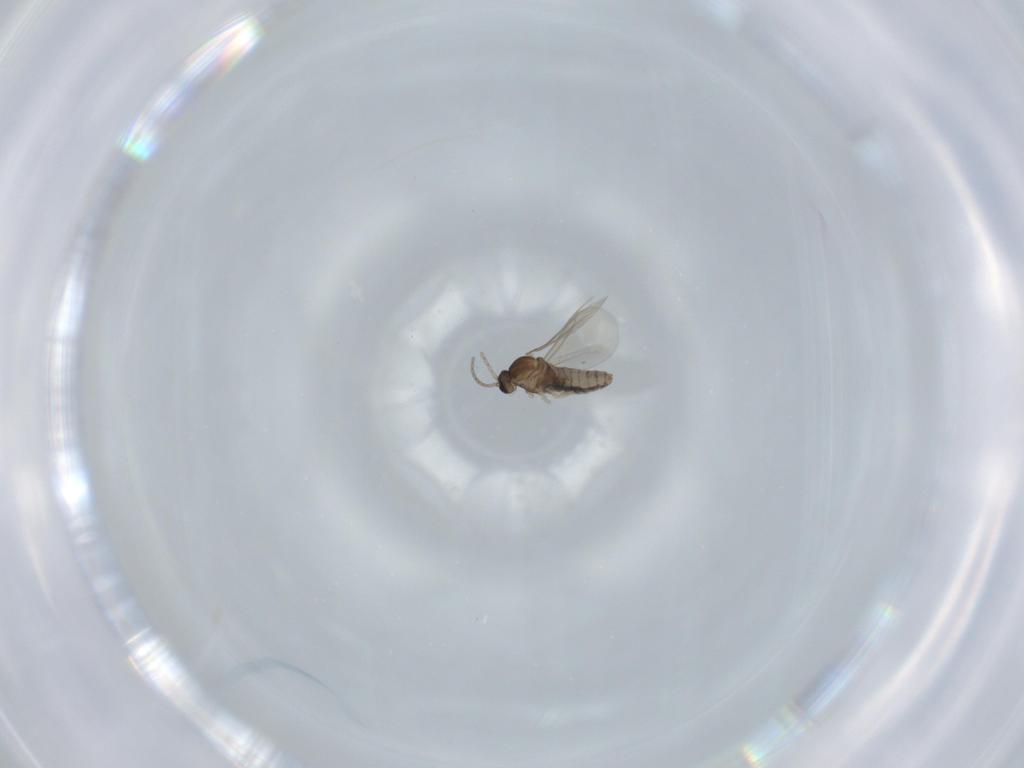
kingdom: Animalia
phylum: Arthropoda
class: Insecta
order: Diptera
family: Cecidomyiidae
